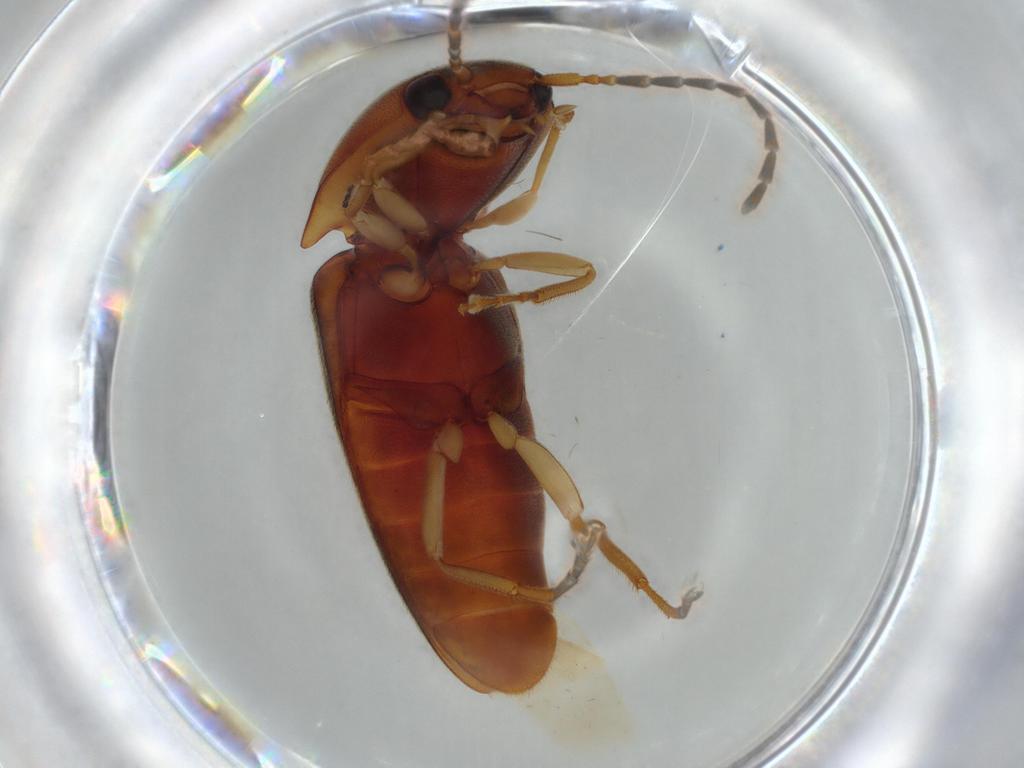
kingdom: Animalia
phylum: Arthropoda
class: Insecta
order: Coleoptera
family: Elateridae
